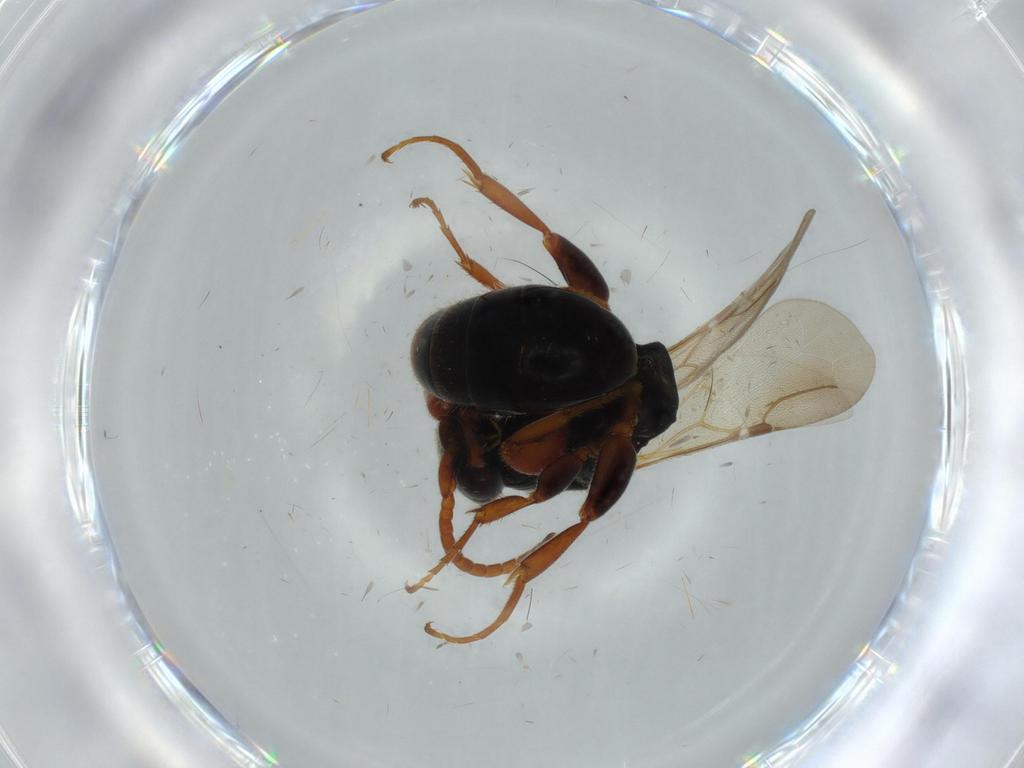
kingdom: Animalia
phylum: Arthropoda
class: Insecta
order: Hymenoptera
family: Bethylidae
